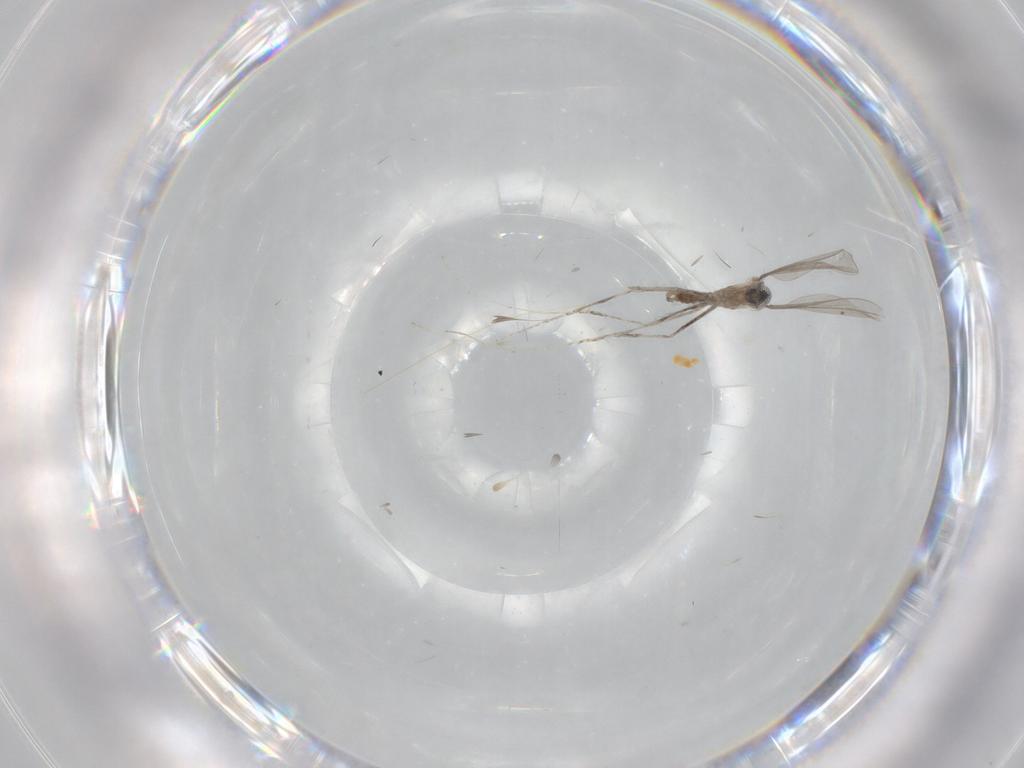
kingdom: Animalia
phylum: Arthropoda
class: Insecta
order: Diptera
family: Cecidomyiidae
